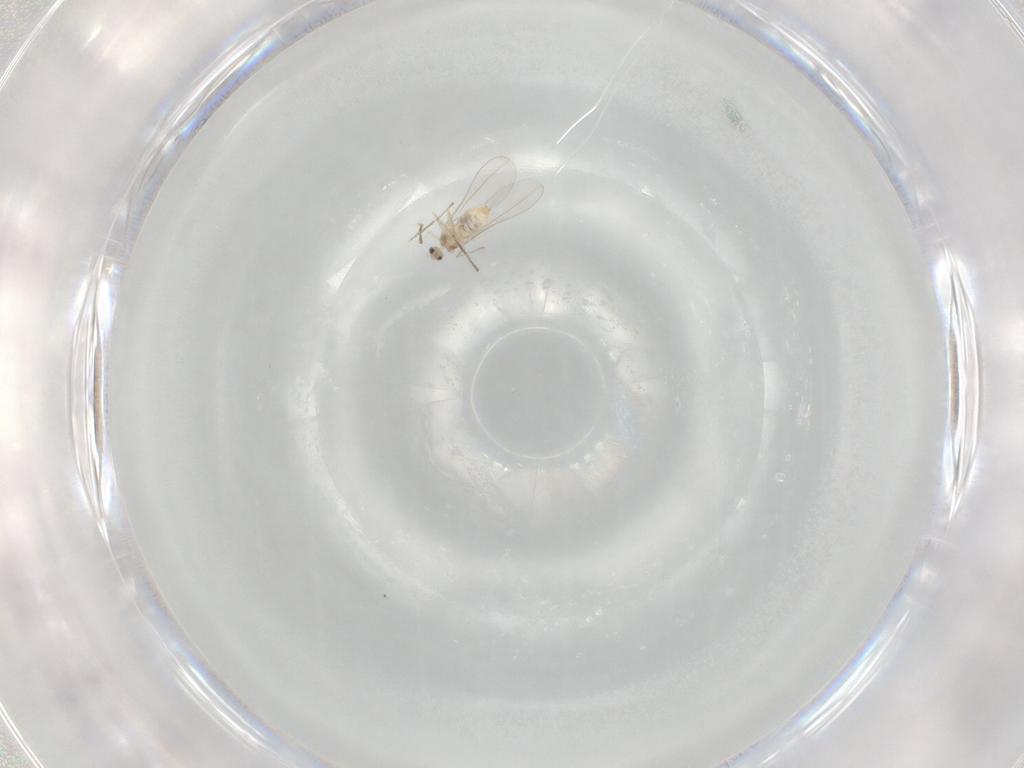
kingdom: Animalia
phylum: Arthropoda
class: Insecta
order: Diptera
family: Cecidomyiidae
